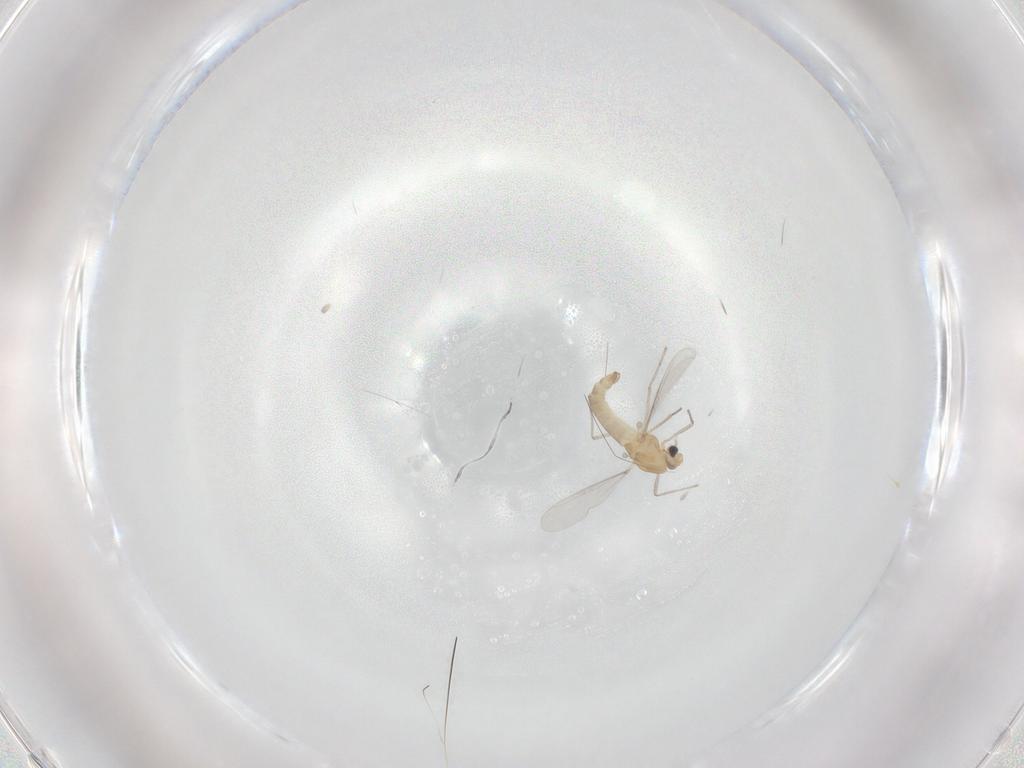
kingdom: Animalia
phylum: Arthropoda
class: Insecta
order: Diptera
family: Chironomidae
